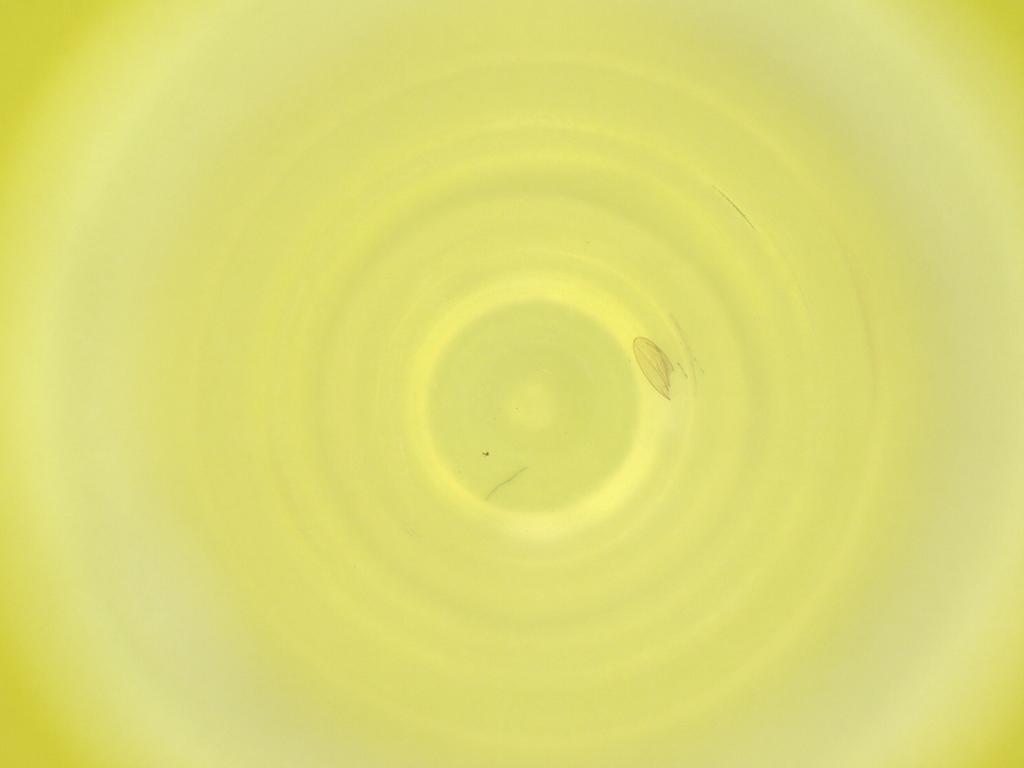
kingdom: Animalia
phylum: Arthropoda
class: Insecta
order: Diptera
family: Cecidomyiidae
